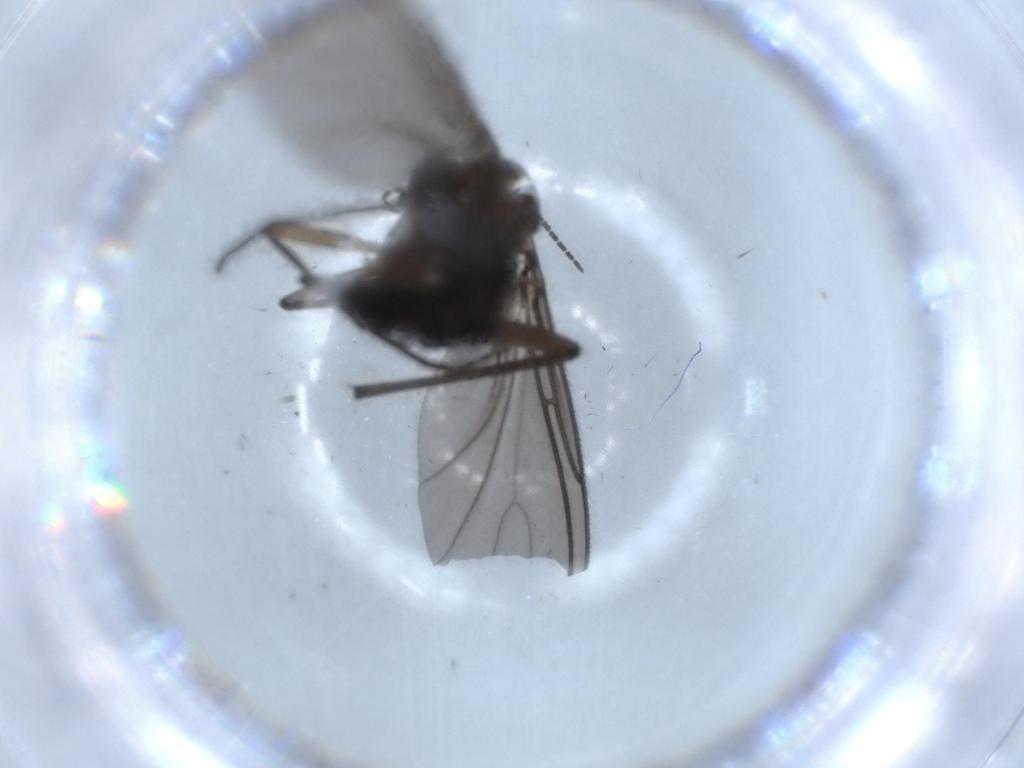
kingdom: Animalia
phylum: Arthropoda
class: Insecta
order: Diptera
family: Sciaridae
